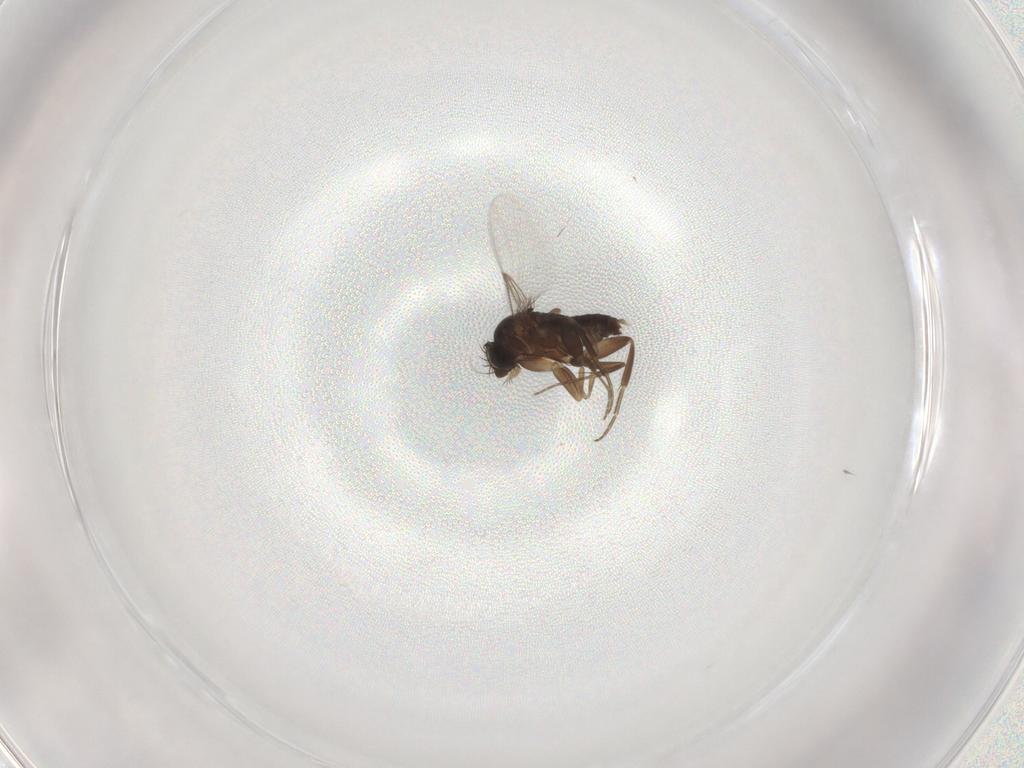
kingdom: Animalia
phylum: Arthropoda
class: Insecta
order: Diptera
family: Phoridae
